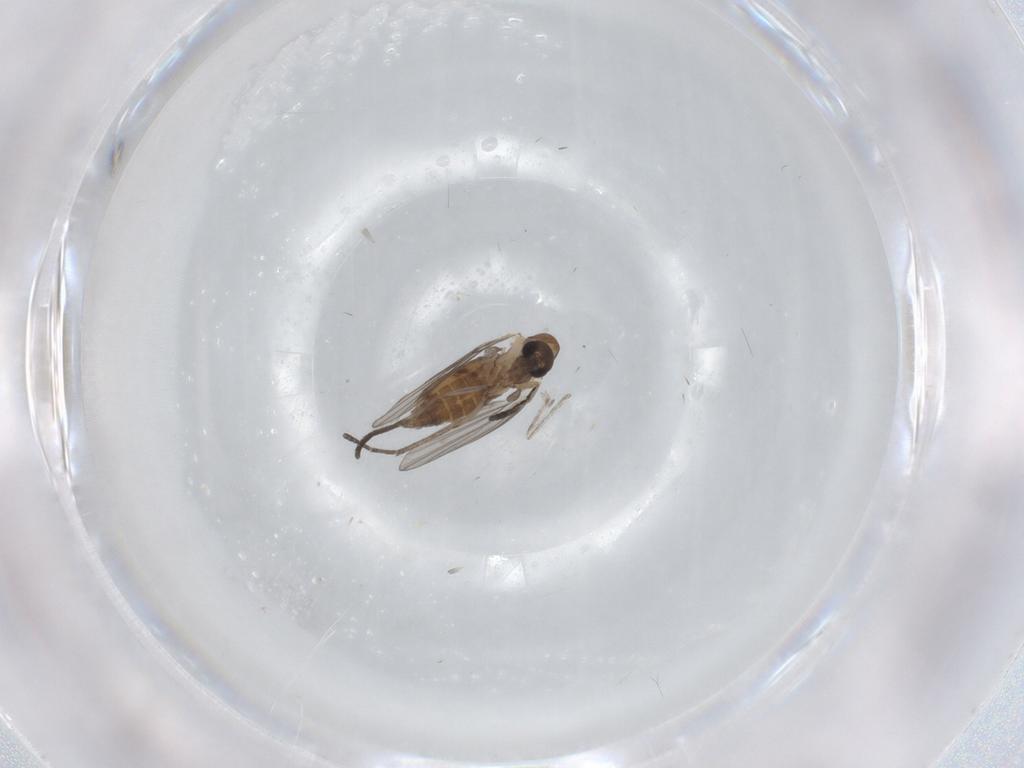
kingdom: Animalia
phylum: Arthropoda
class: Insecta
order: Diptera
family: Psychodidae
